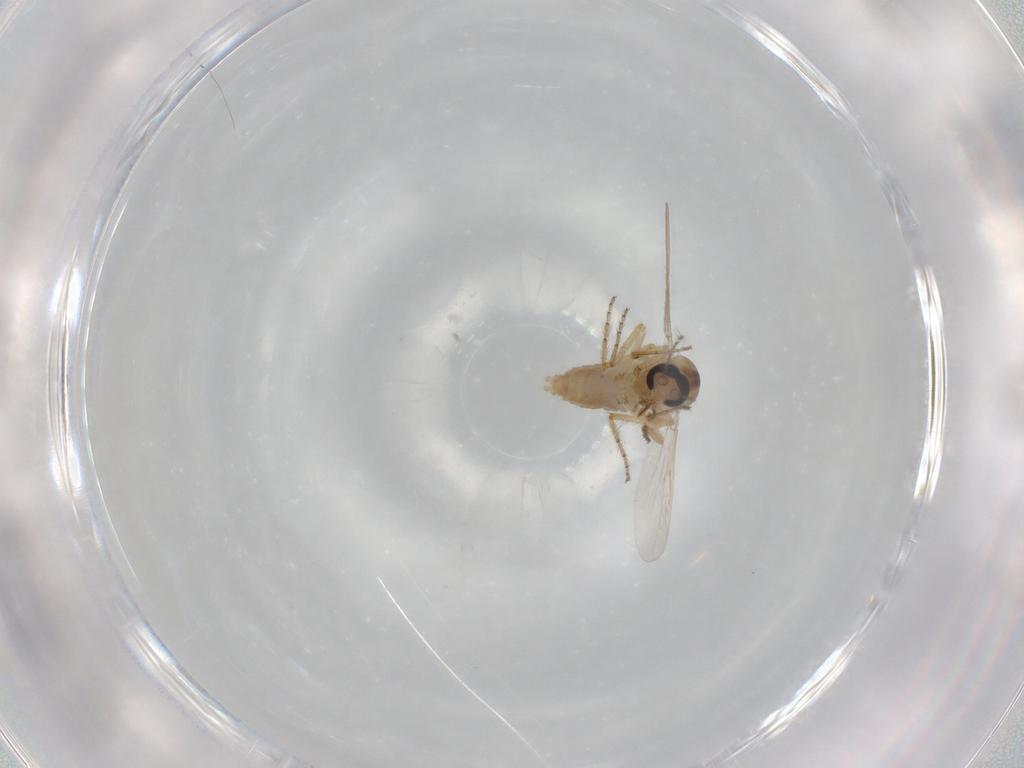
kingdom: Animalia
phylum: Arthropoda
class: Insecta
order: Diptera
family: Ceratopogonidae
